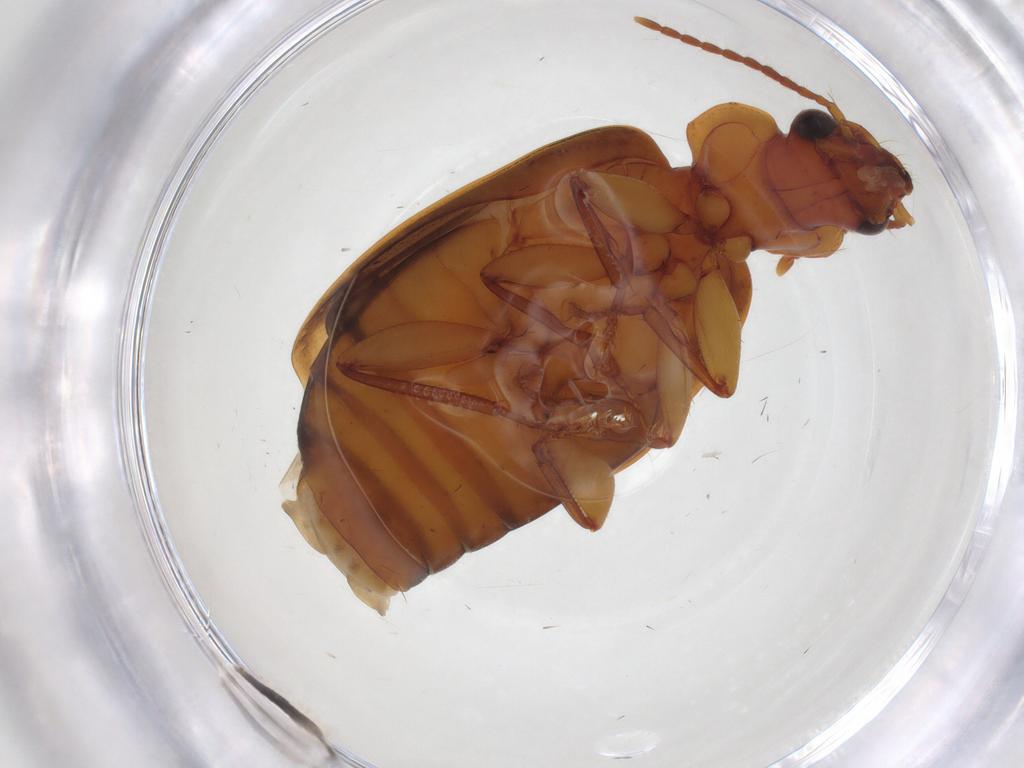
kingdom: Animalia
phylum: Arthropoda
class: Insecta
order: Coleoptera
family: Carabidae
